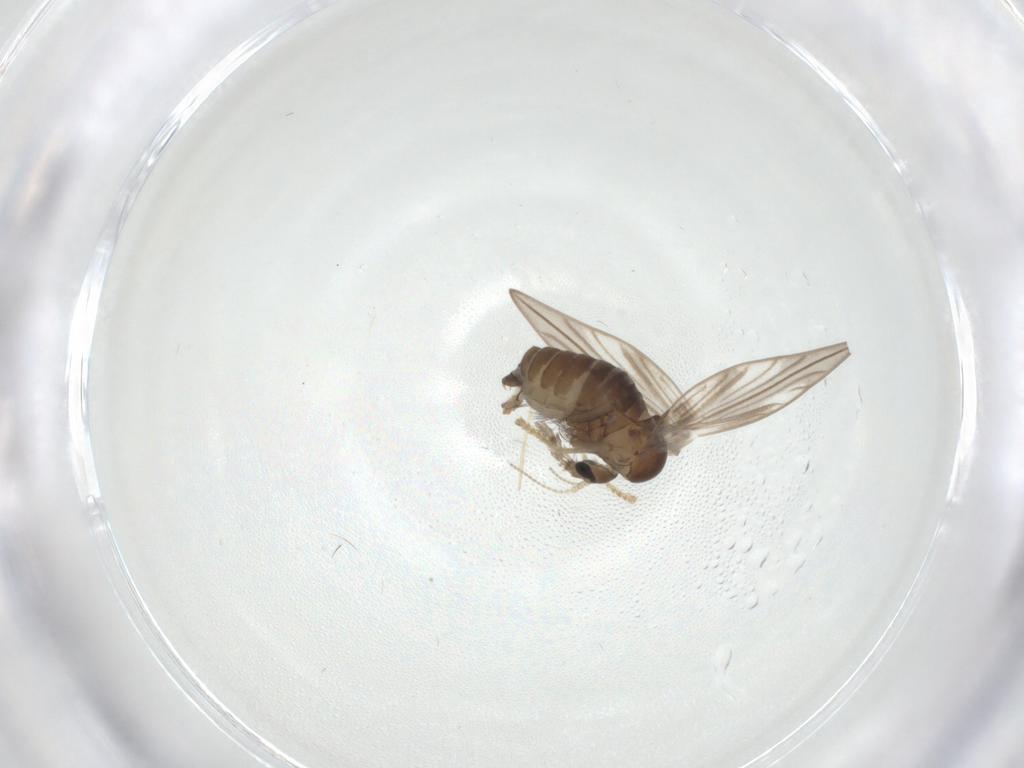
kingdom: Animalia
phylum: Arthropoda
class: Insecta
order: Diptera
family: Psychodidae
